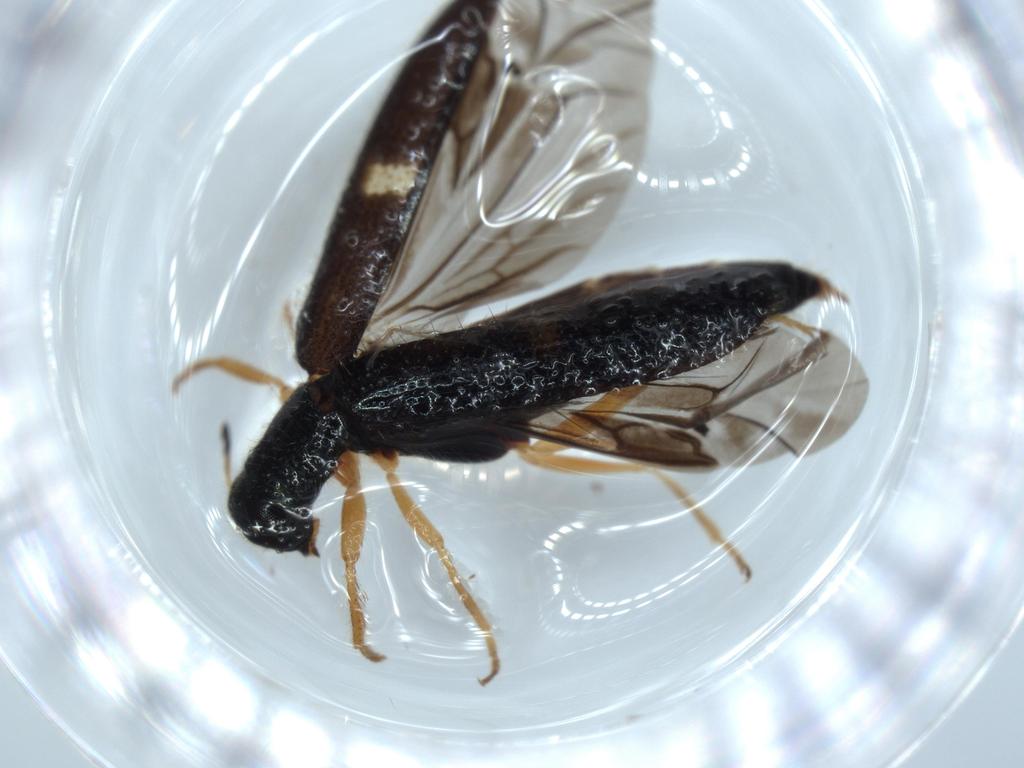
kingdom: Animalia
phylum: Arthropoda
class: Insecta
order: Coleoptera
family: Cleridae
